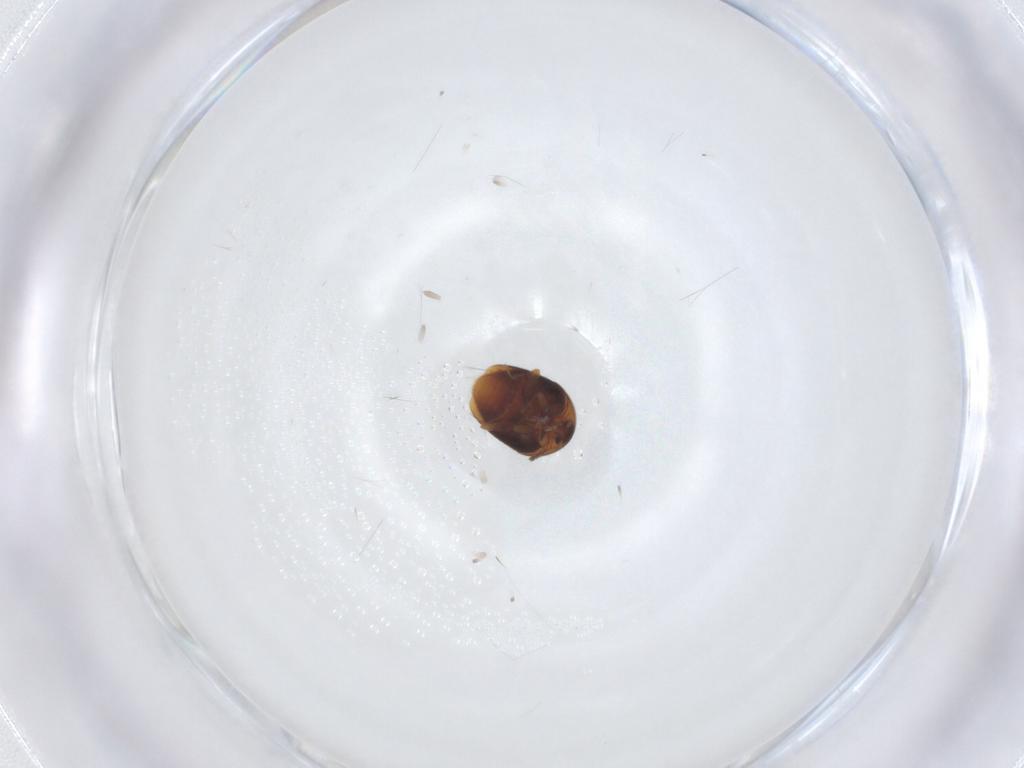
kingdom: Animalia
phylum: Arthropoda
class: Insecta
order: Coleoptera
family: Corylophidae
